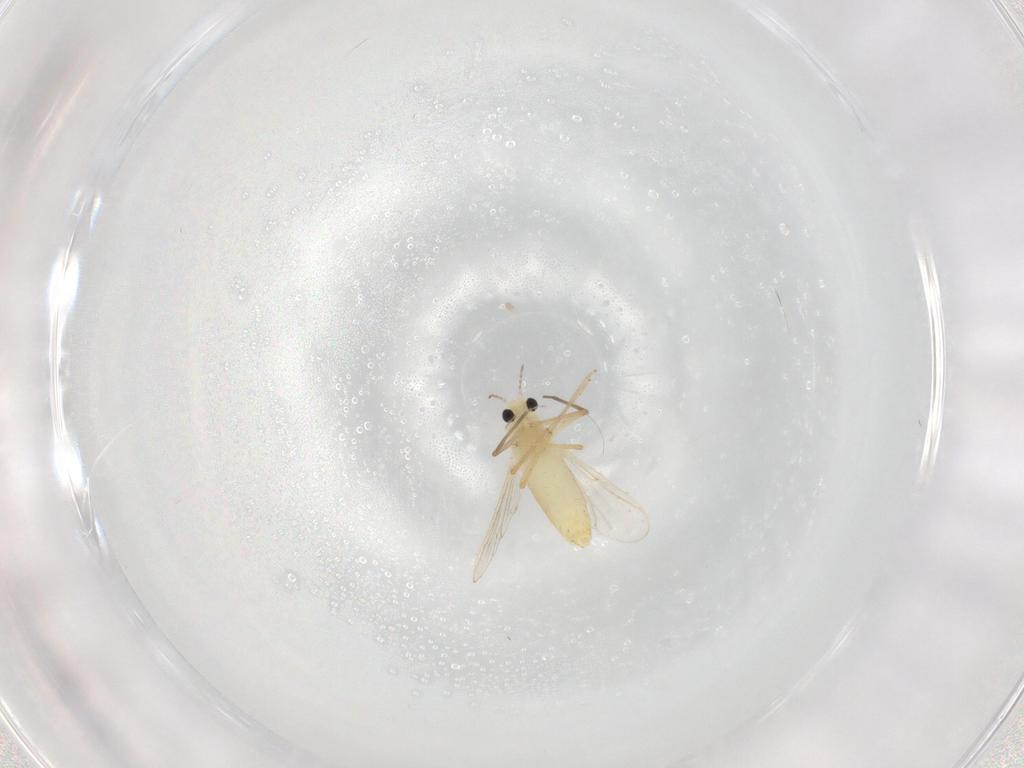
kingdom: Animalia
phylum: Arthropoda
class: Insecta
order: Diptera
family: Chironomidae
